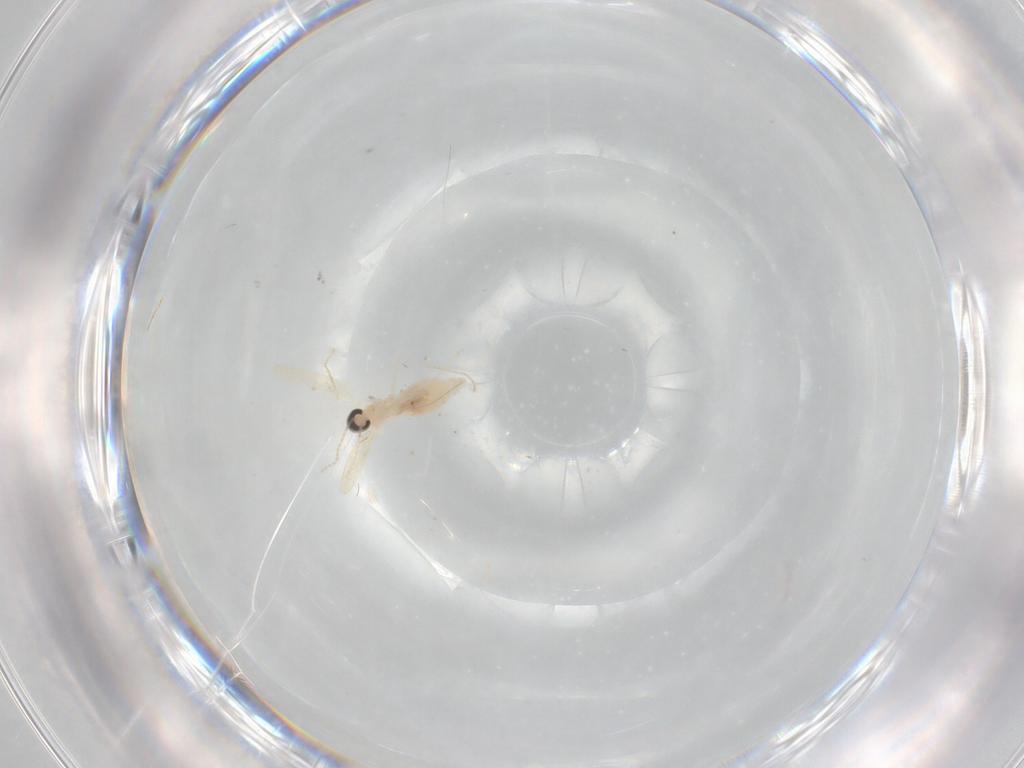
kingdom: Animalia
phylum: Arthropoda
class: Insecta
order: Diptera
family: Cecidomyiidae
